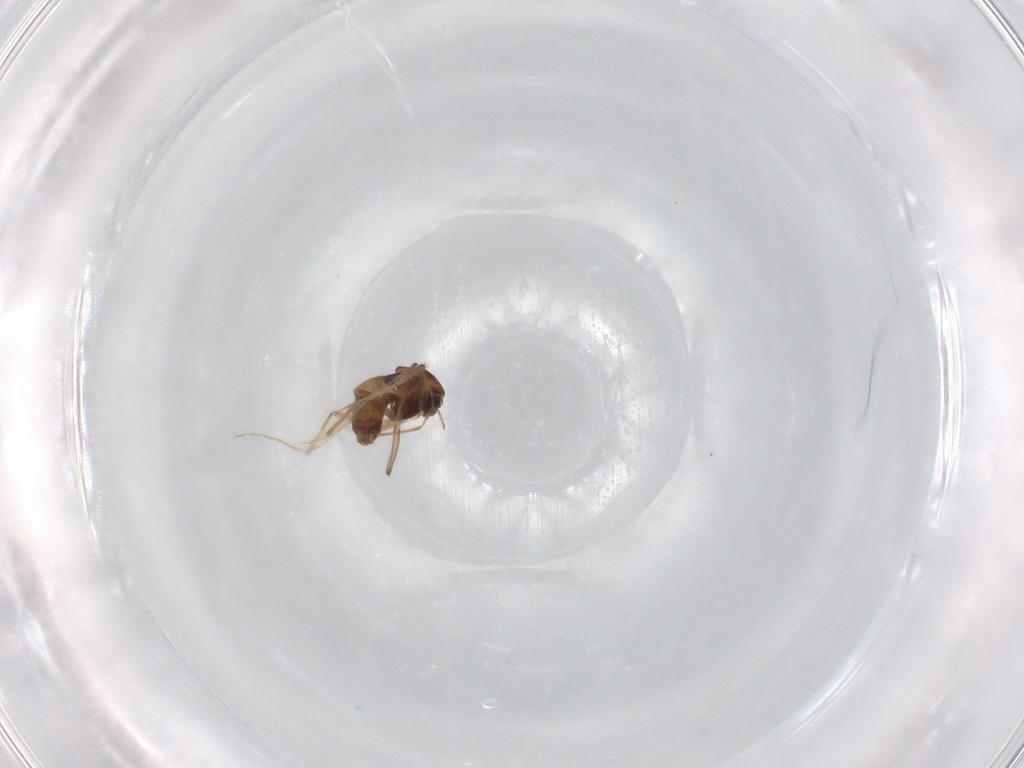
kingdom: Animalia
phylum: Arthropoda
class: Insecta
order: Diptera
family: Chironomidae
